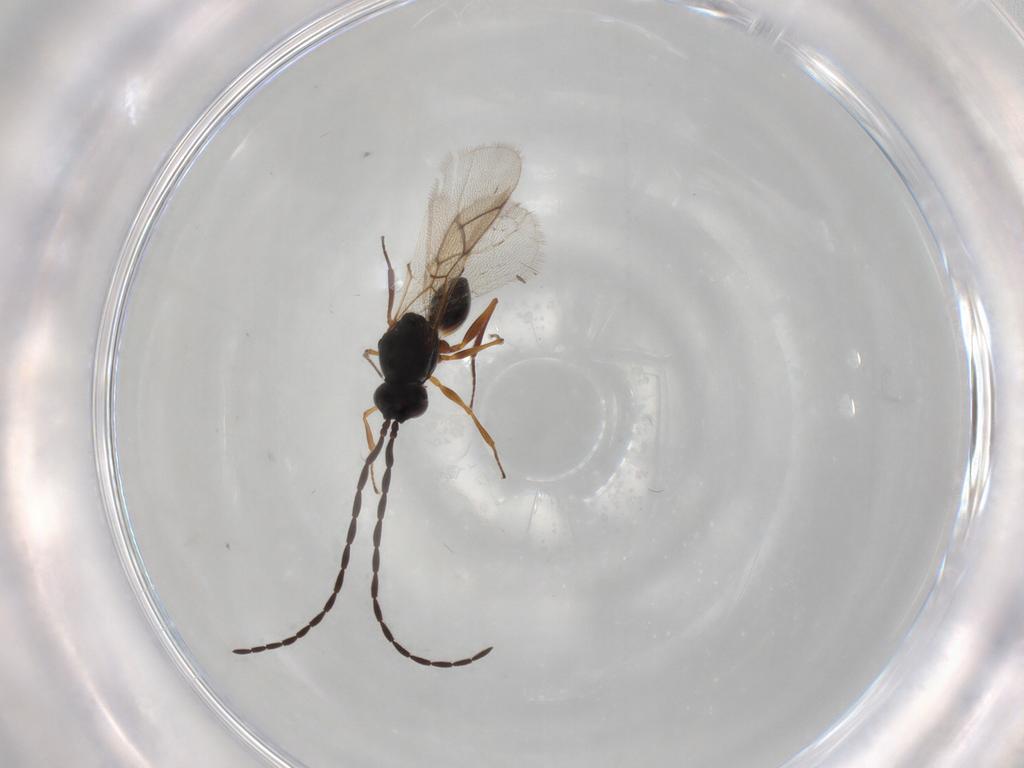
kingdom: Animalia
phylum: Arthropoda
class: Insecta
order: Hymenoptera
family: Figitidae
